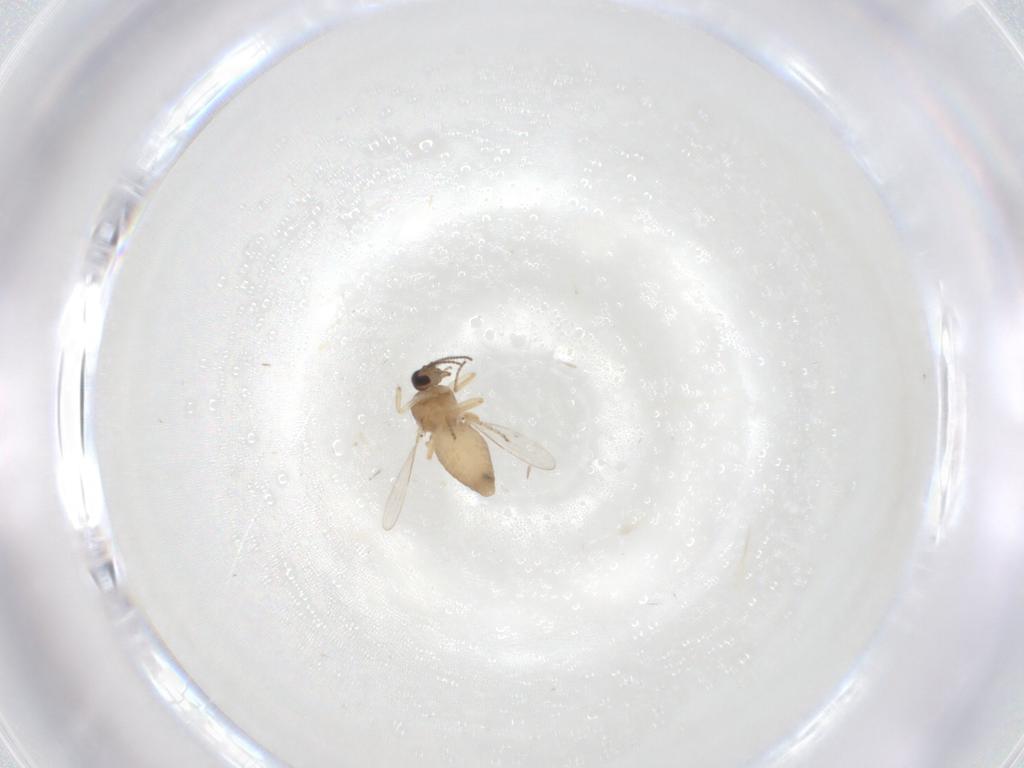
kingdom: Animalia
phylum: Arthropoda
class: Insecta
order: Diptera
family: Ceratopogonidae
